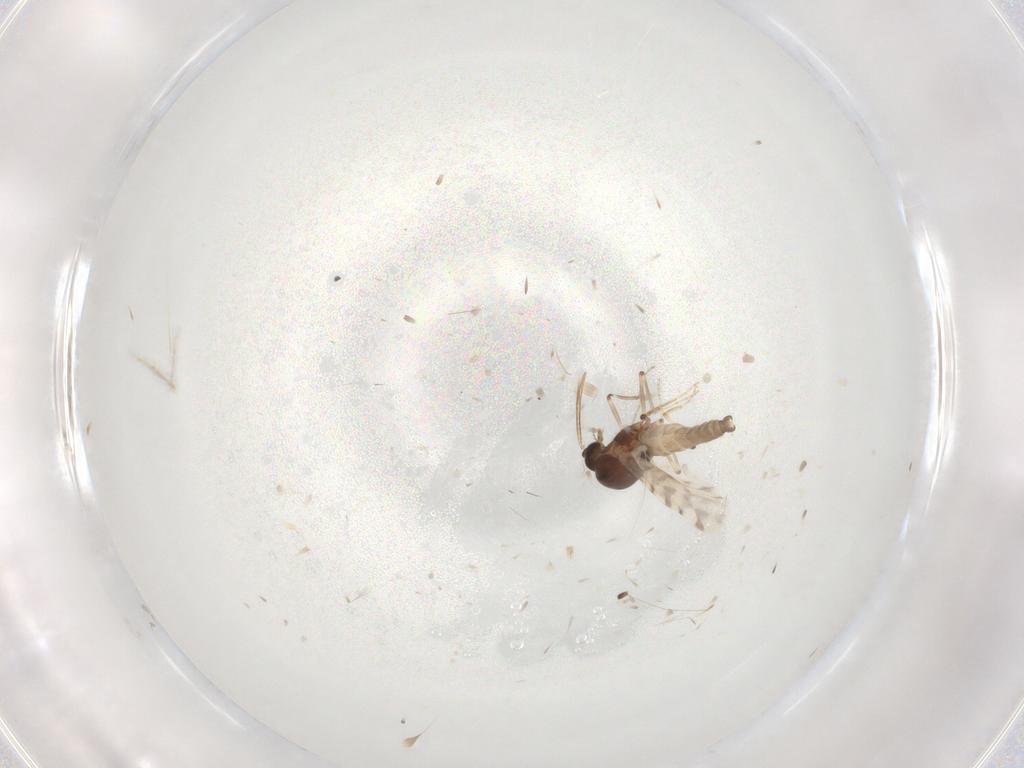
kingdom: Animalia
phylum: Arthropoda
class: Insecta
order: Diptera
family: Ceratopogonidae
